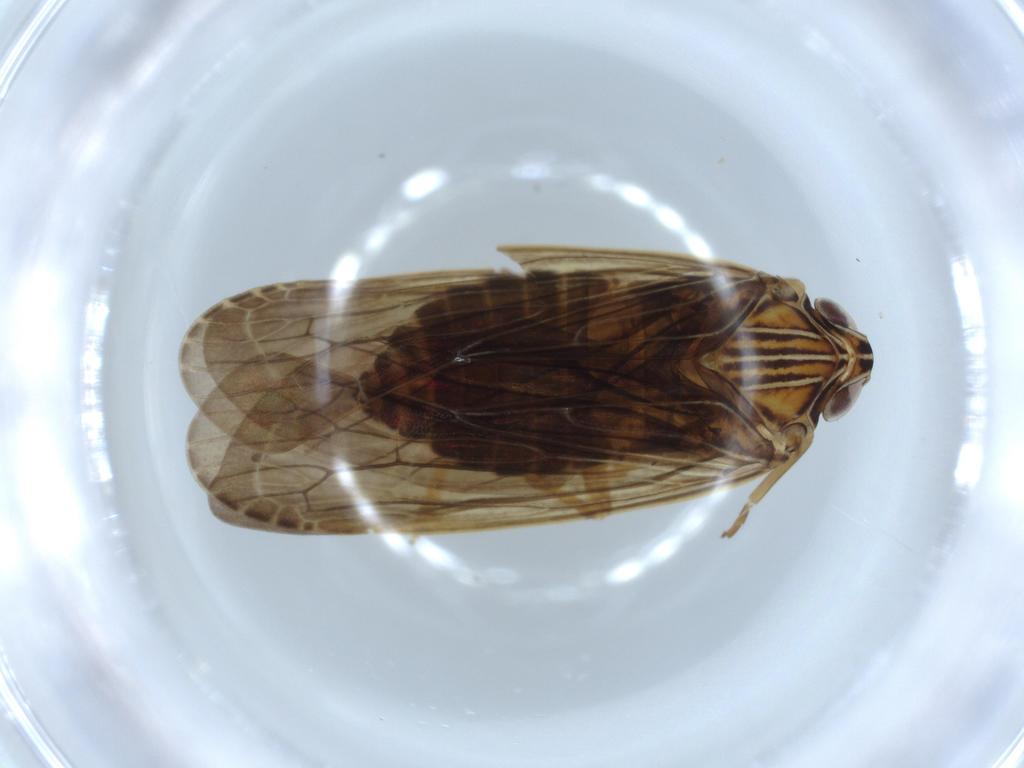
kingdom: Animalia
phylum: Arthropoda
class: Insecta
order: Hemiptera
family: Achilidae
